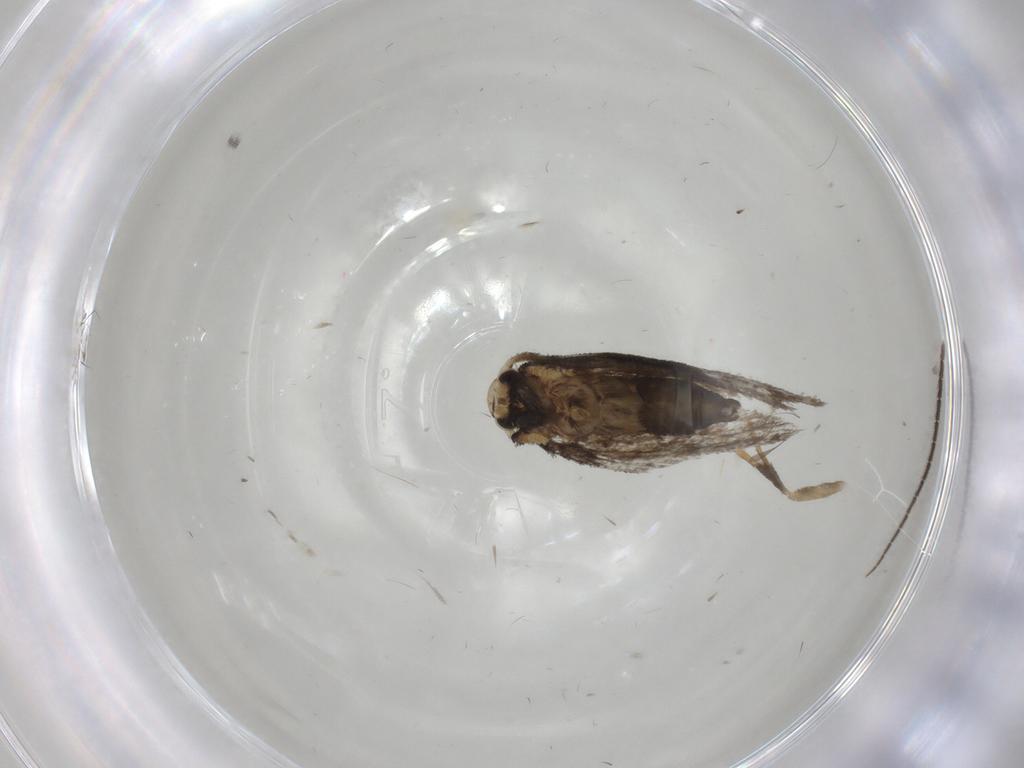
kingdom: Animalia
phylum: Arthropoda
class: Insecta
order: Lepidoptera
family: Psychidae
